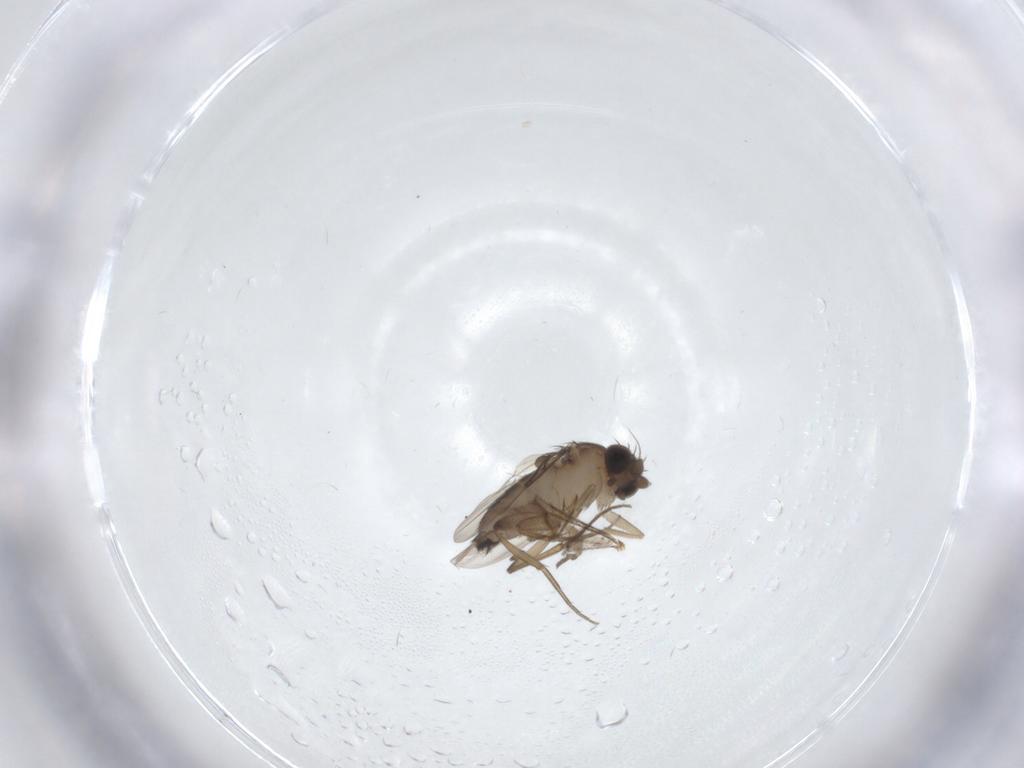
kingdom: Animalia
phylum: Arthropoda
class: Insecta
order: Diptera
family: Phoridae
